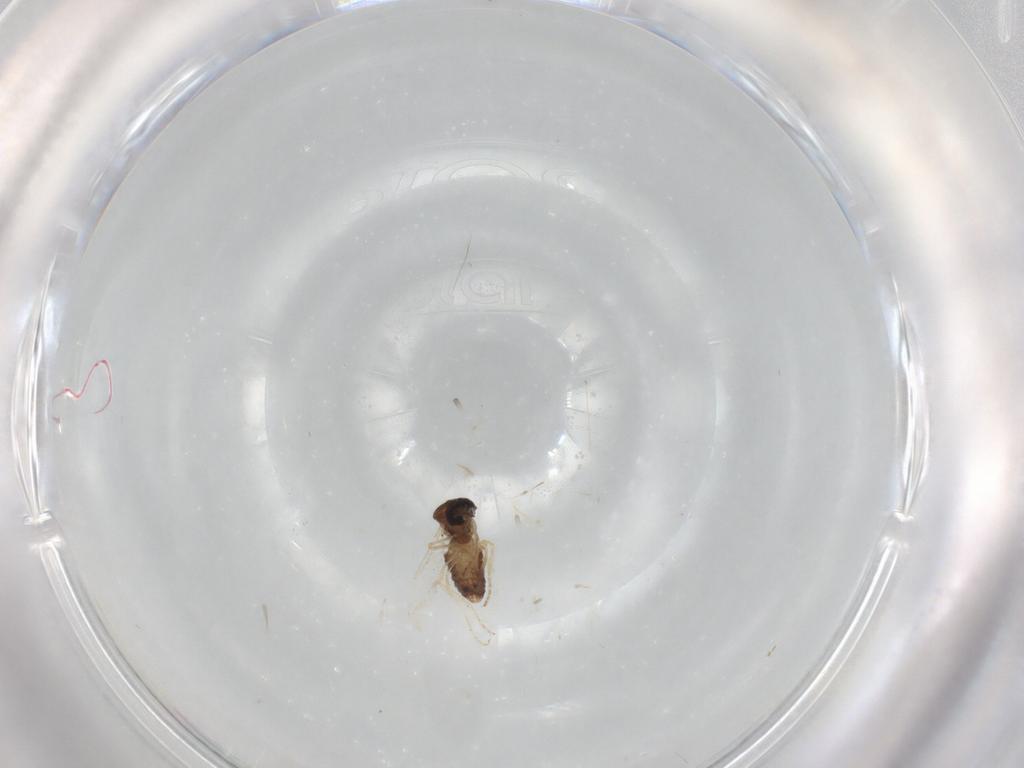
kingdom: Animalia
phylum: Arthropoda
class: Insecta
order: Diptera
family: Ceratopogonidae
